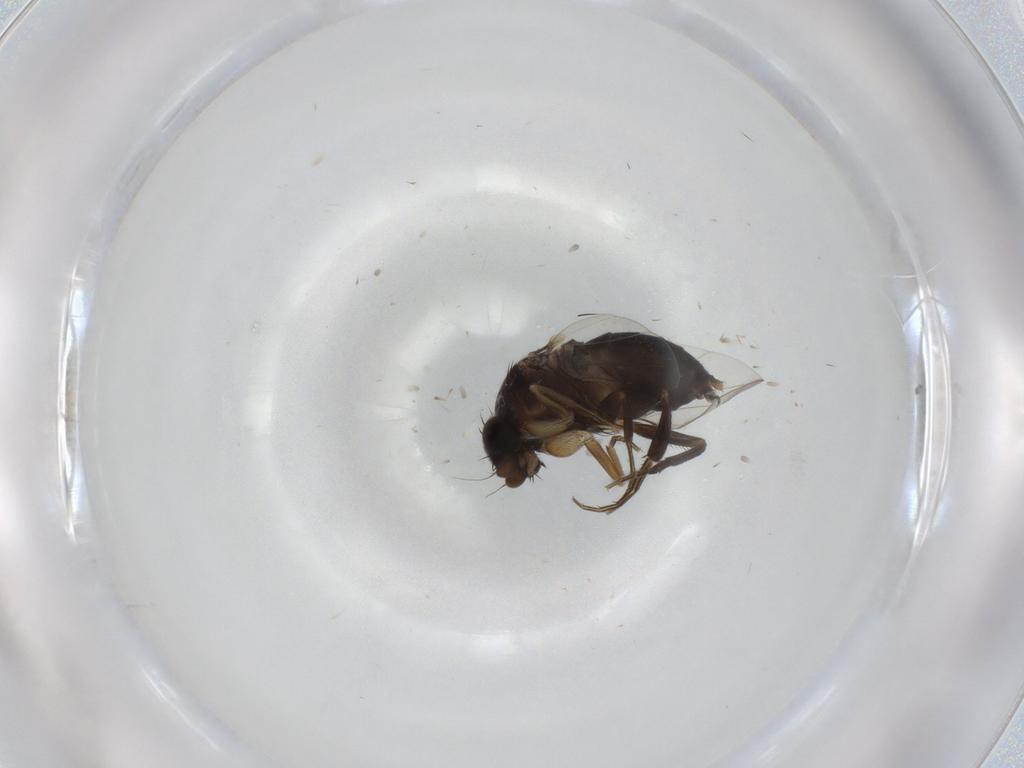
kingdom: Animalia
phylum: Arthropoda
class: Insecta
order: Diptera
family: Phoridae
